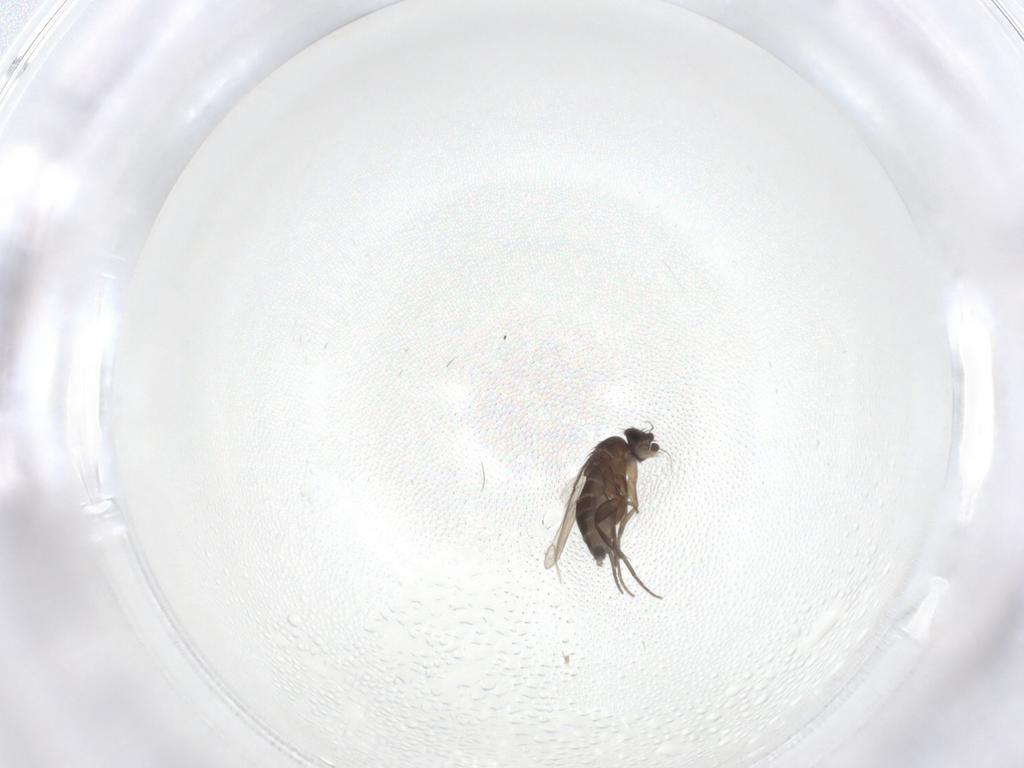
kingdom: Animalia
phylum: Arthropoda
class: Insecta
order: Diptera
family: Phoridae
